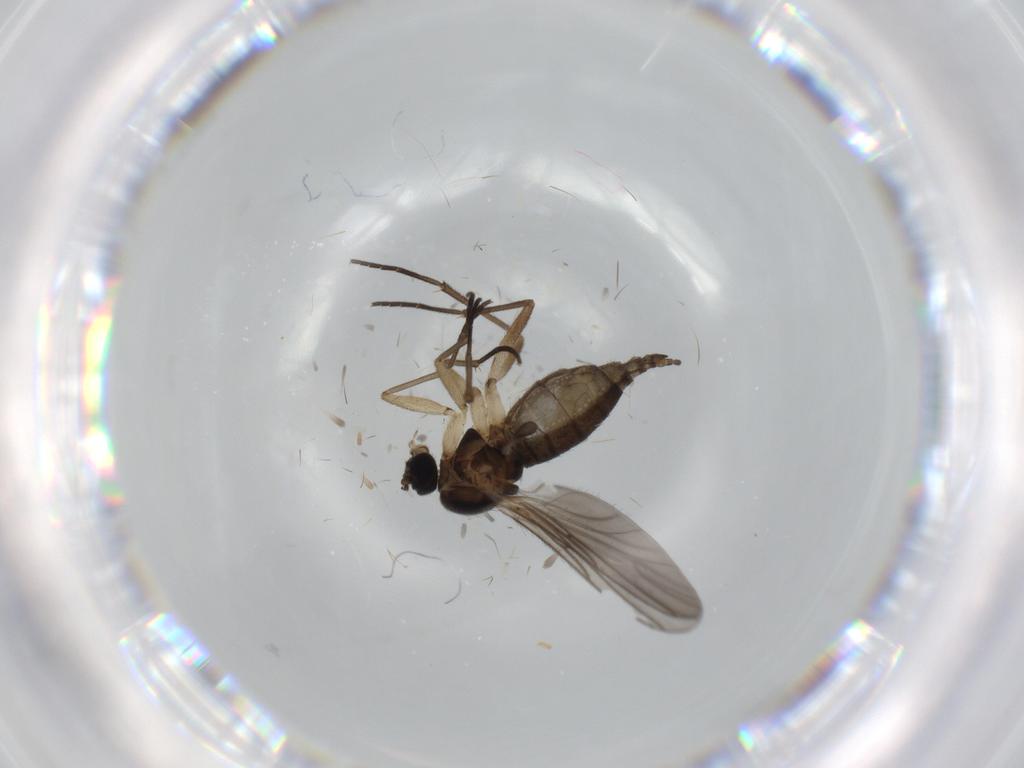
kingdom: Animalia
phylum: Arthropoda
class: Insecta
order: Diptera
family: Sciaridae
